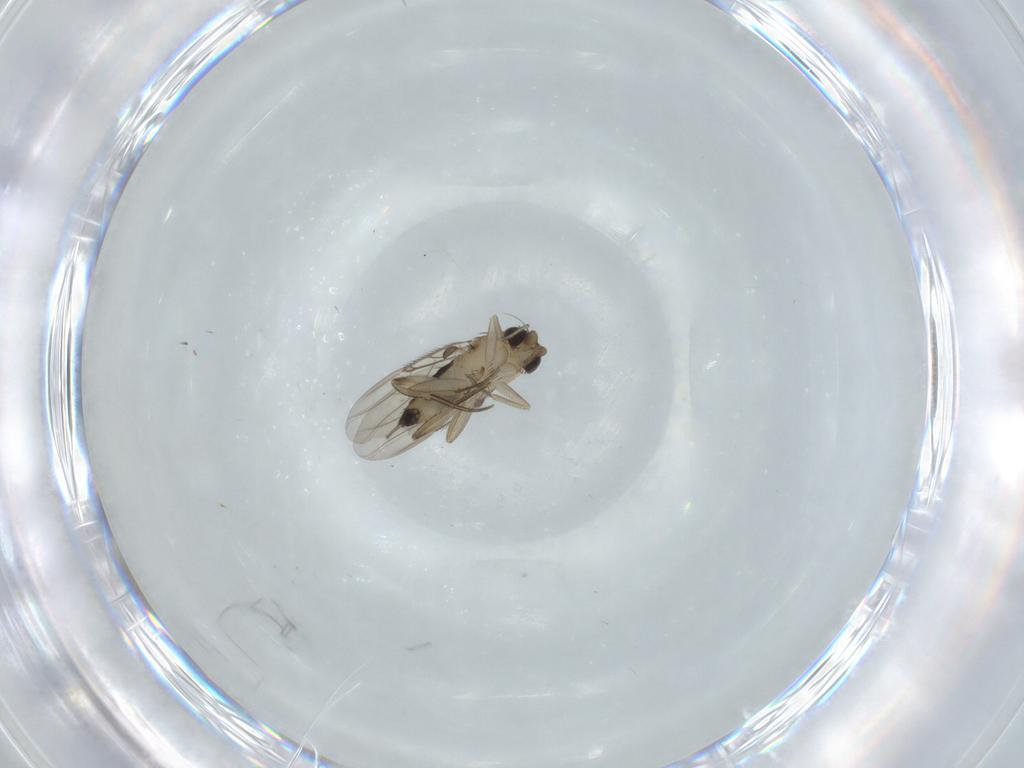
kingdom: Animalia
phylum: Arthropoda
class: Insecta
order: Diptera
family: Phoridae
